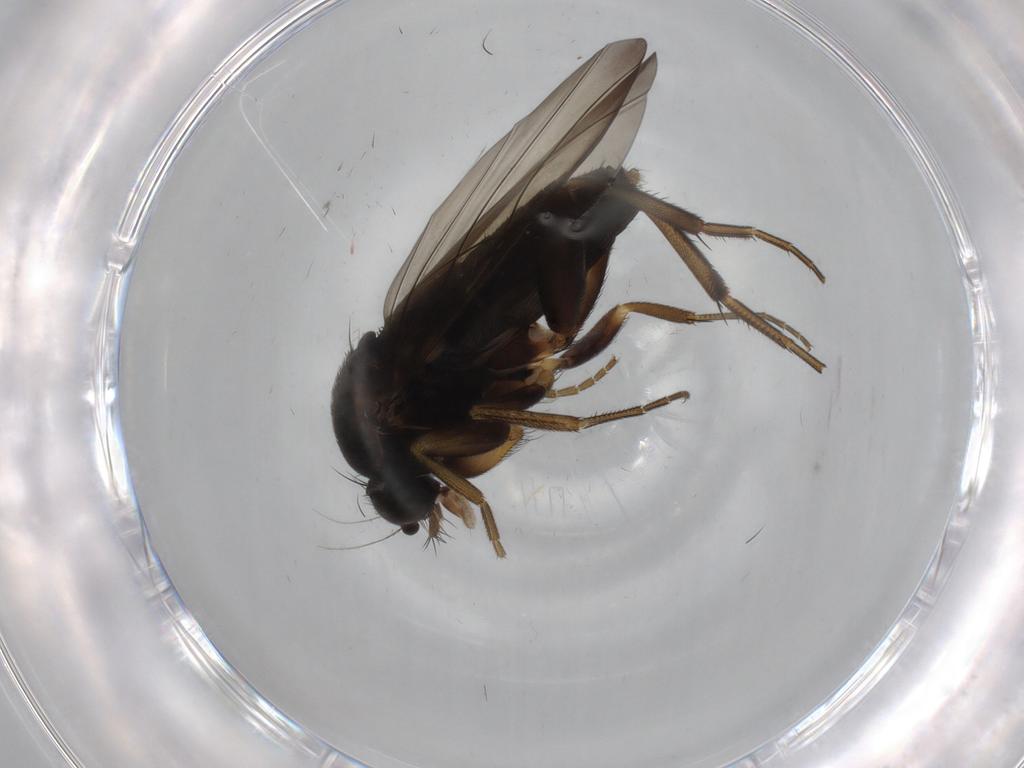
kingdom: Animalia
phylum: Arthropoda
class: Insecta
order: Diptera
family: Phoridae
